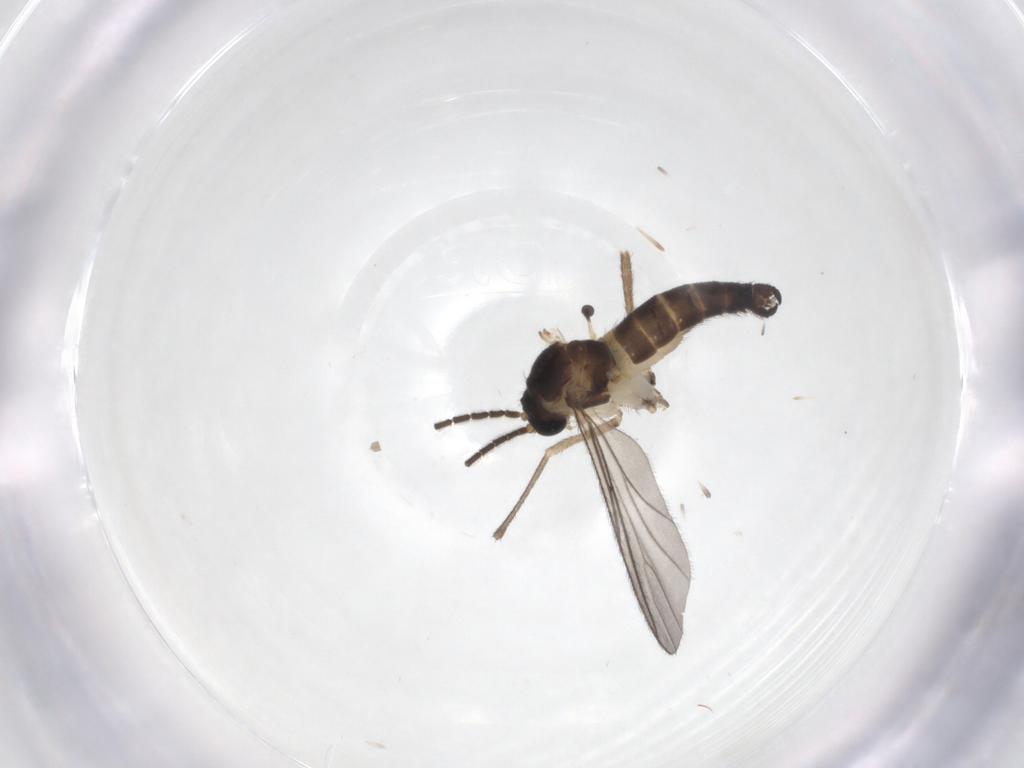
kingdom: Animalia
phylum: Arthropoda
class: Insecta
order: Diptera
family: Sciaridae
